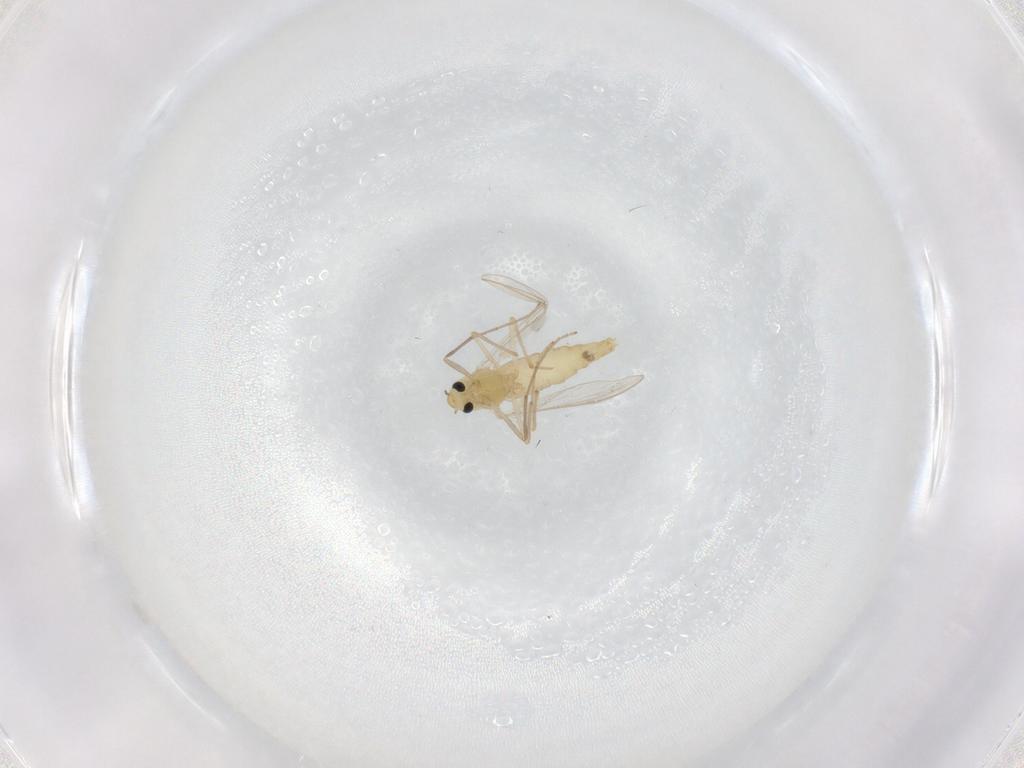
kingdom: Animalia
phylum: Arthropoda
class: Insecta
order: Diptera
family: Chironomidae
